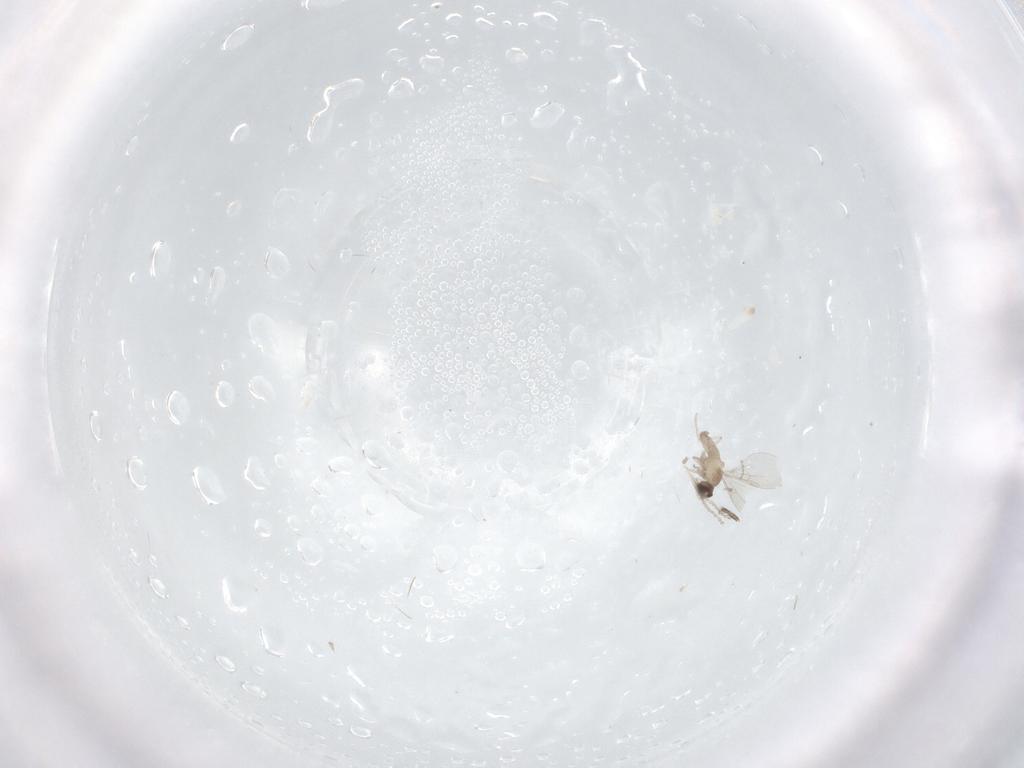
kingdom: Animalia
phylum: Arthropoda
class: Insecta
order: Diptera
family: Cecidomyiidae
